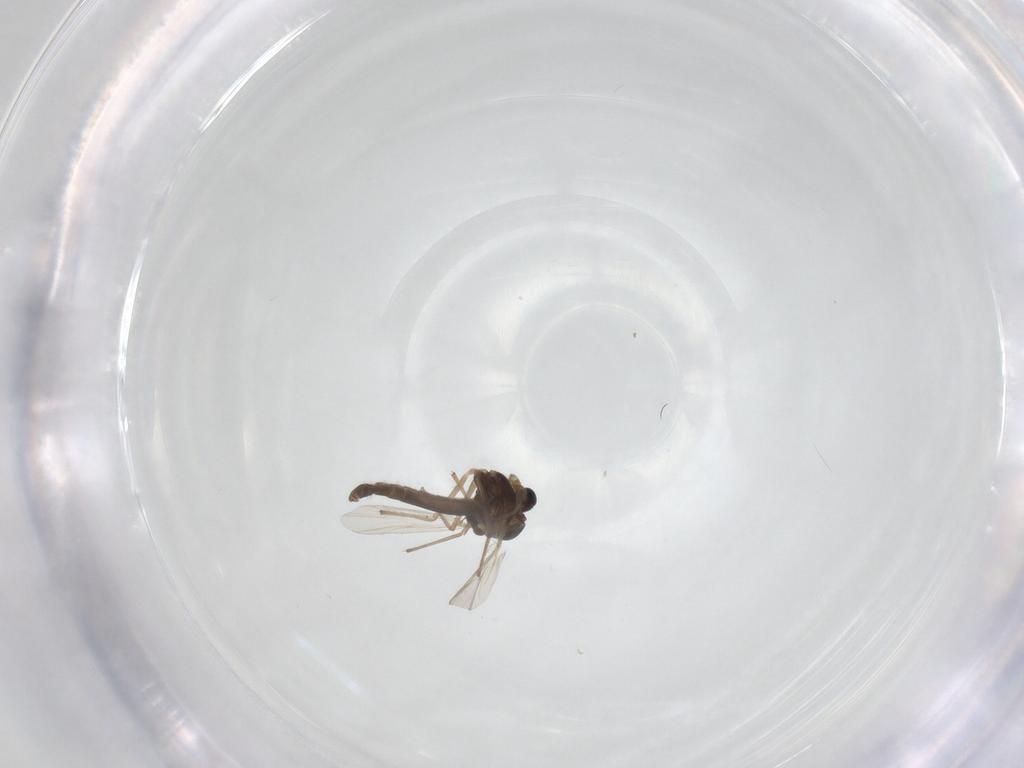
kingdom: Animalia
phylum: Arthropoda
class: Insecta
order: Diptera
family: Chironomidae
